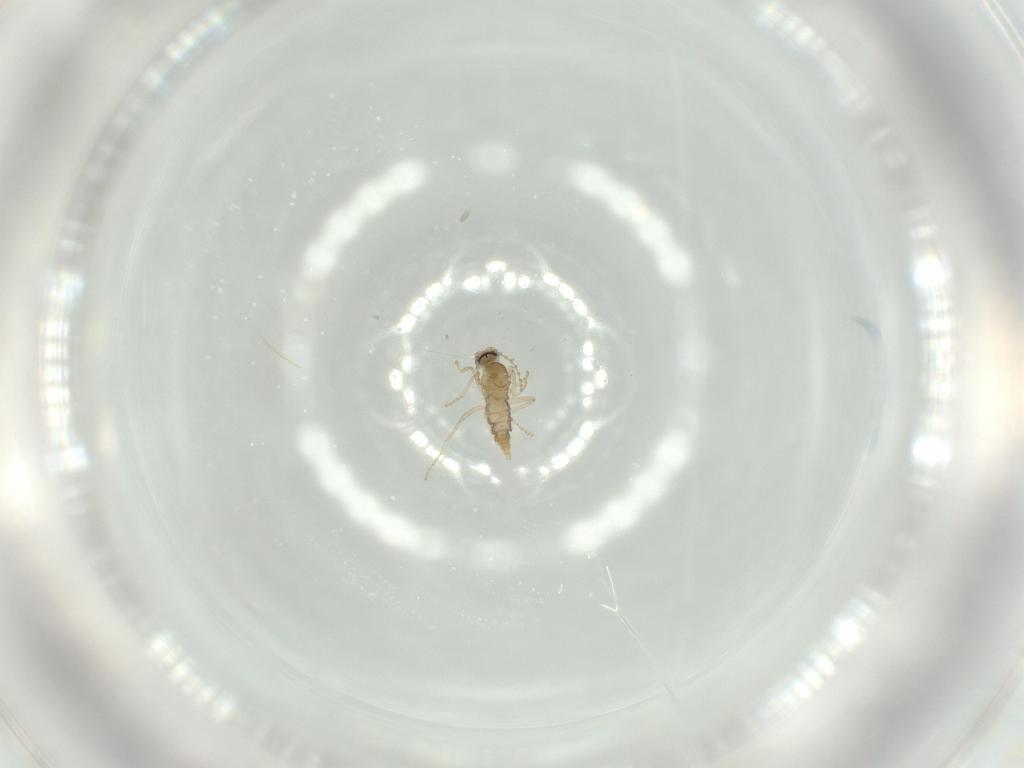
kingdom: Animalia
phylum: Arthropoda
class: Insecta
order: Diptera
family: Cecidomyiidae
